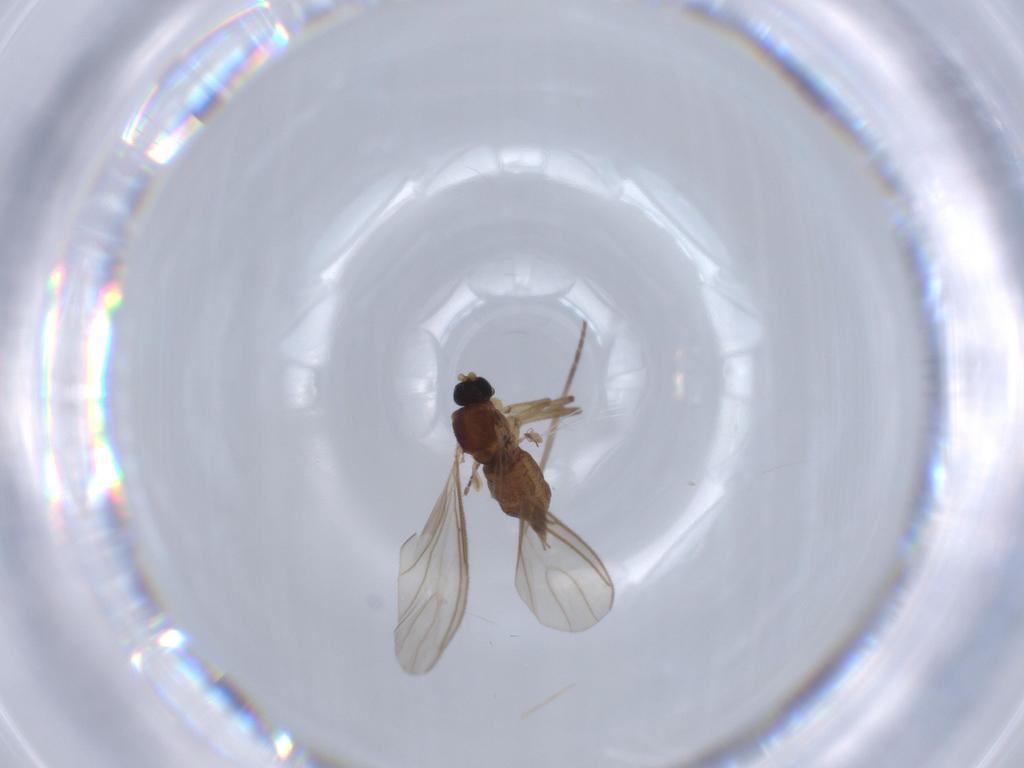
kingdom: Animalia
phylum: Arthropoda
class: Insecta
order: Diptera
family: Sciaridae
